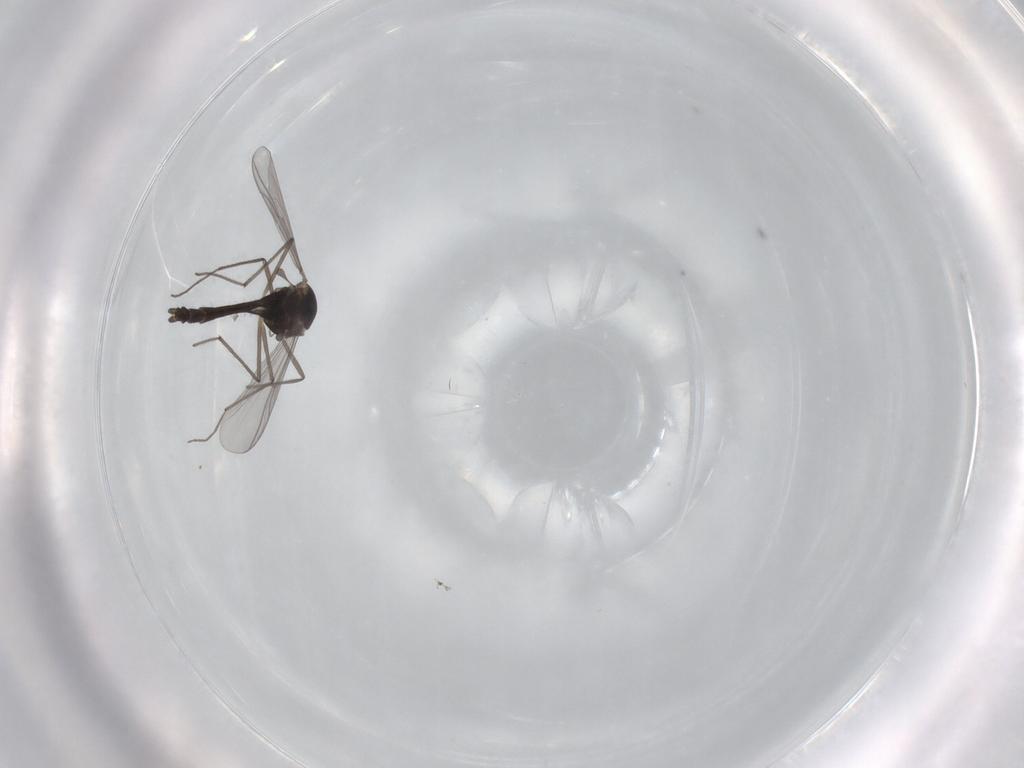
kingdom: Animalia
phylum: Arthropoda
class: Insecta
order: Diptera
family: Chironomidae
